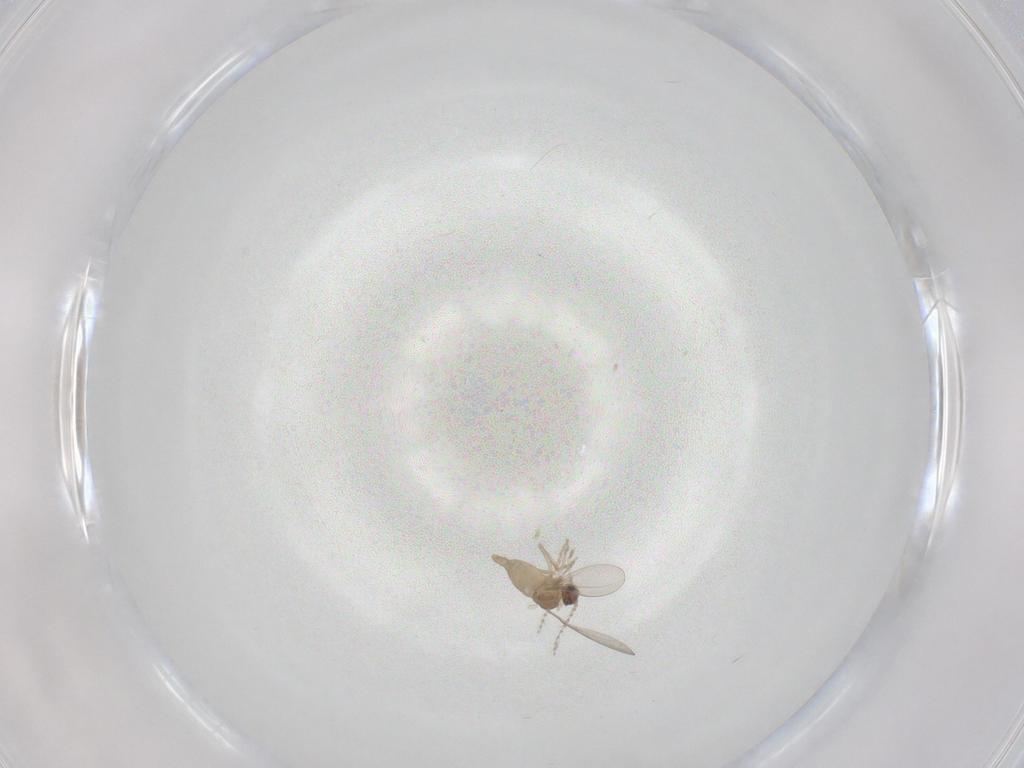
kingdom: Animalia
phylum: Arthropoda
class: Insecta
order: Diptera
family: Cecidomyiidae
